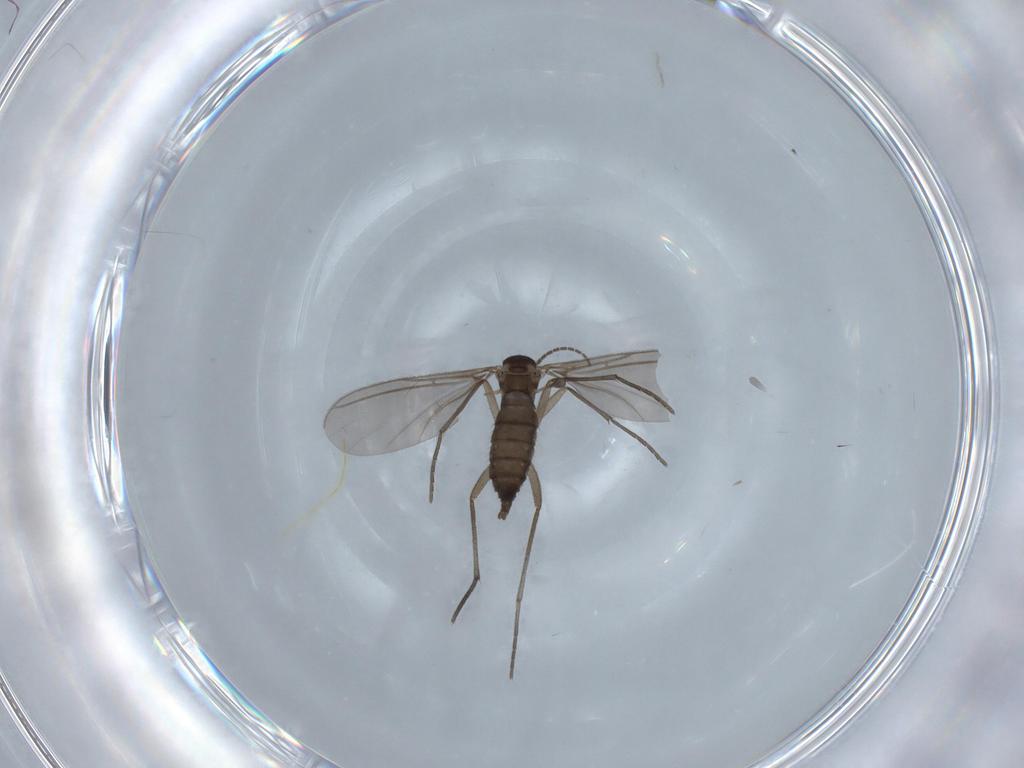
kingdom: Animalia
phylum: Arthropoda
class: Insecta
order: Diptera
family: Sciaridae
